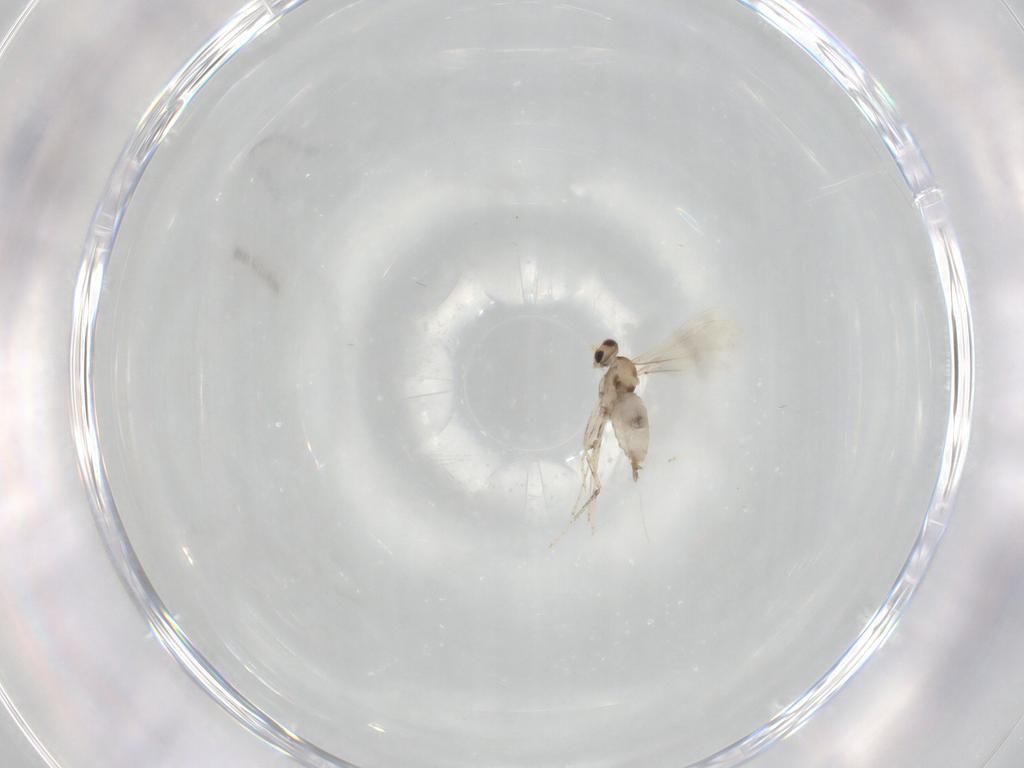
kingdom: Animalia
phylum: Arthropoda
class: Insecta
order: Diptera
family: Cecidomyiidae
